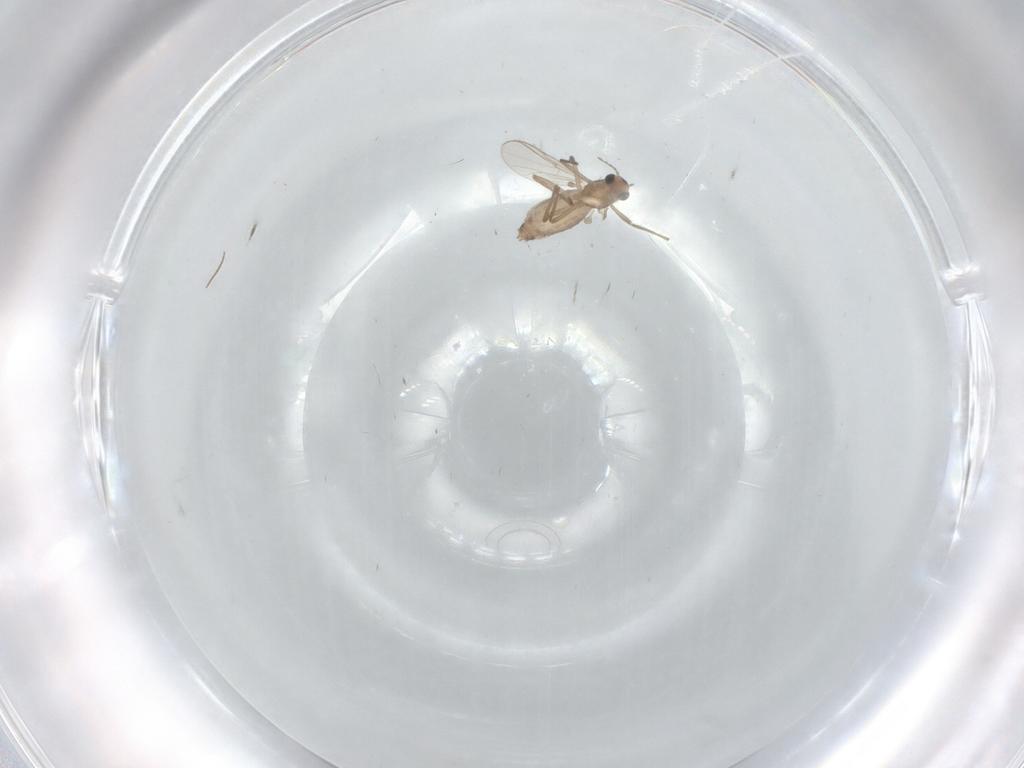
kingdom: Animalia
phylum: Arthropoda
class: Insecta
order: Diptera
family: Chironomidae
